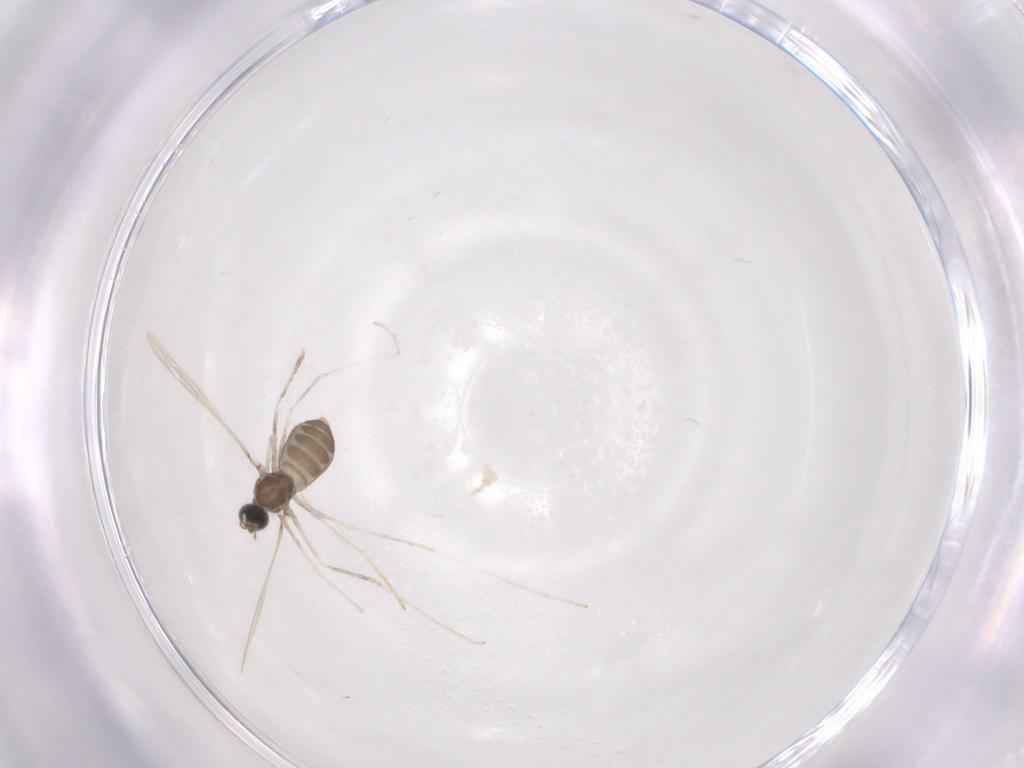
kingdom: Animalia
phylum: Arthropoda
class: Insecta
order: Diptera
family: Cecidomyiidae
